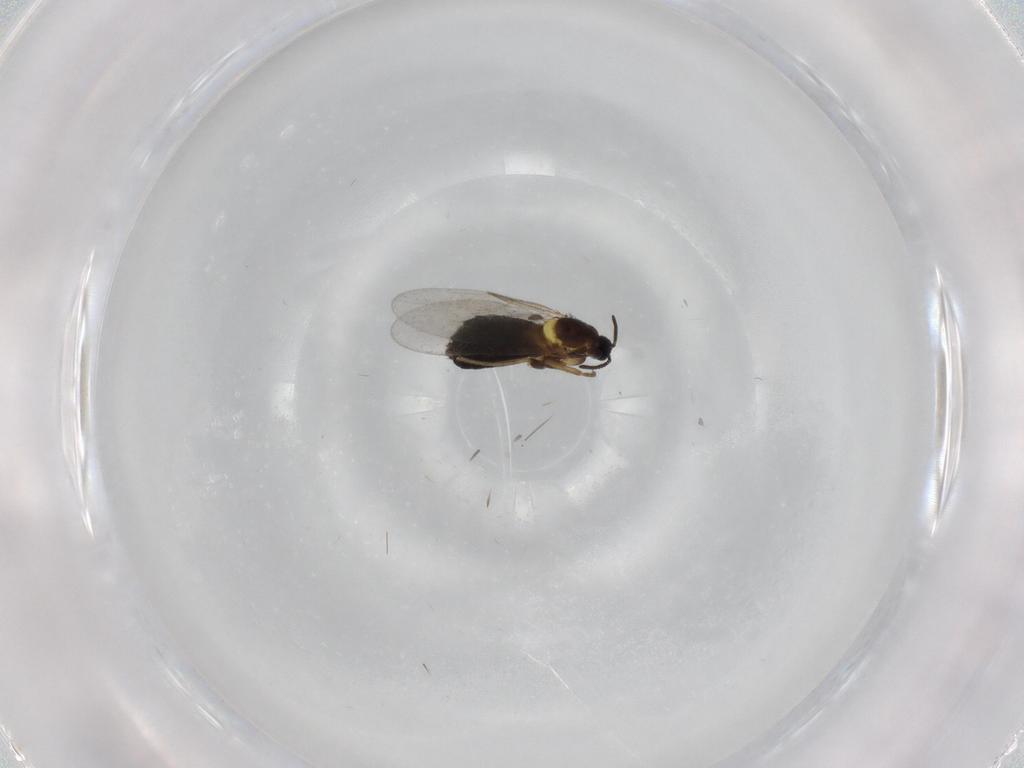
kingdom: Animalia
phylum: Arthropoda
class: Insecta
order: Diptera
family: Scatopsidae
